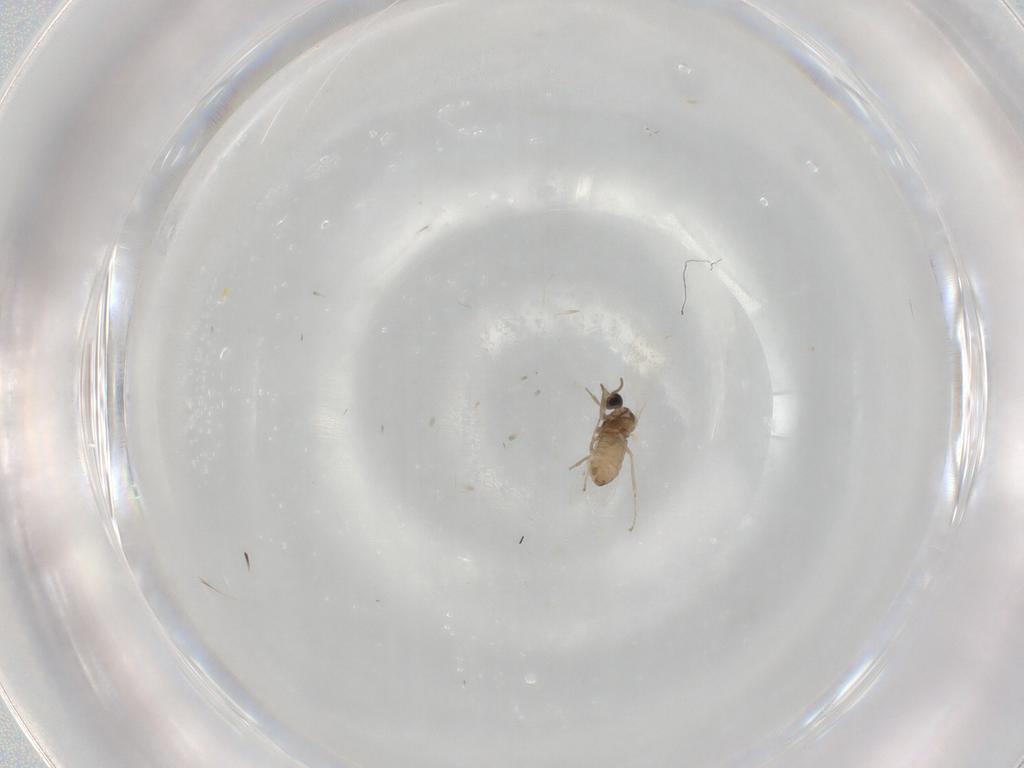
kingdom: Animalia
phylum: Arthropoda
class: Insecta
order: Diptera
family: Cecidomyiidae
